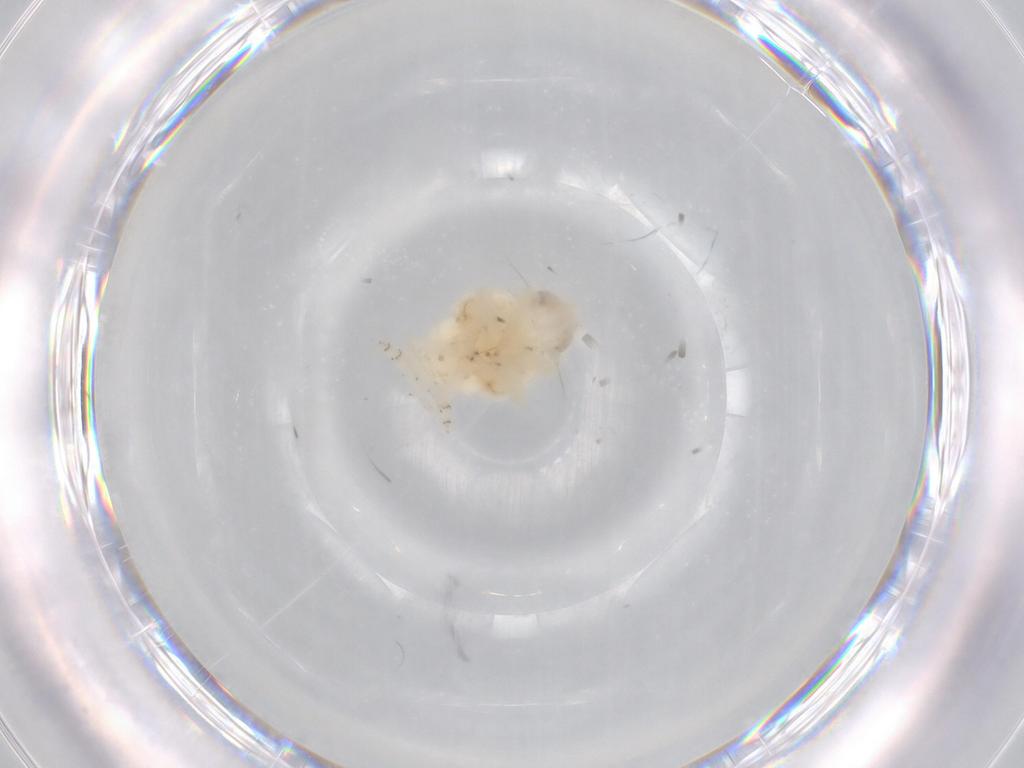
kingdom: Animalia
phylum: Arthropoda
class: Insecta
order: Hemiptera
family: Nogodinidae
